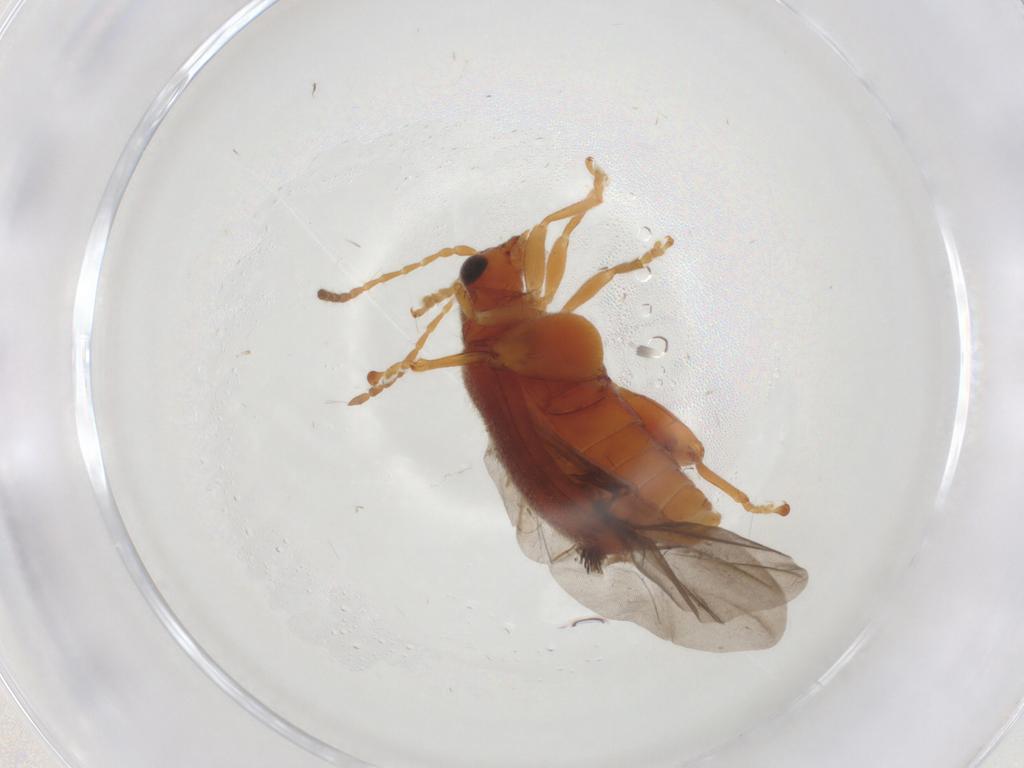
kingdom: Animalia
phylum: Arthropoda
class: Insecta
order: Coleoptera
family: Chrysomelidae
